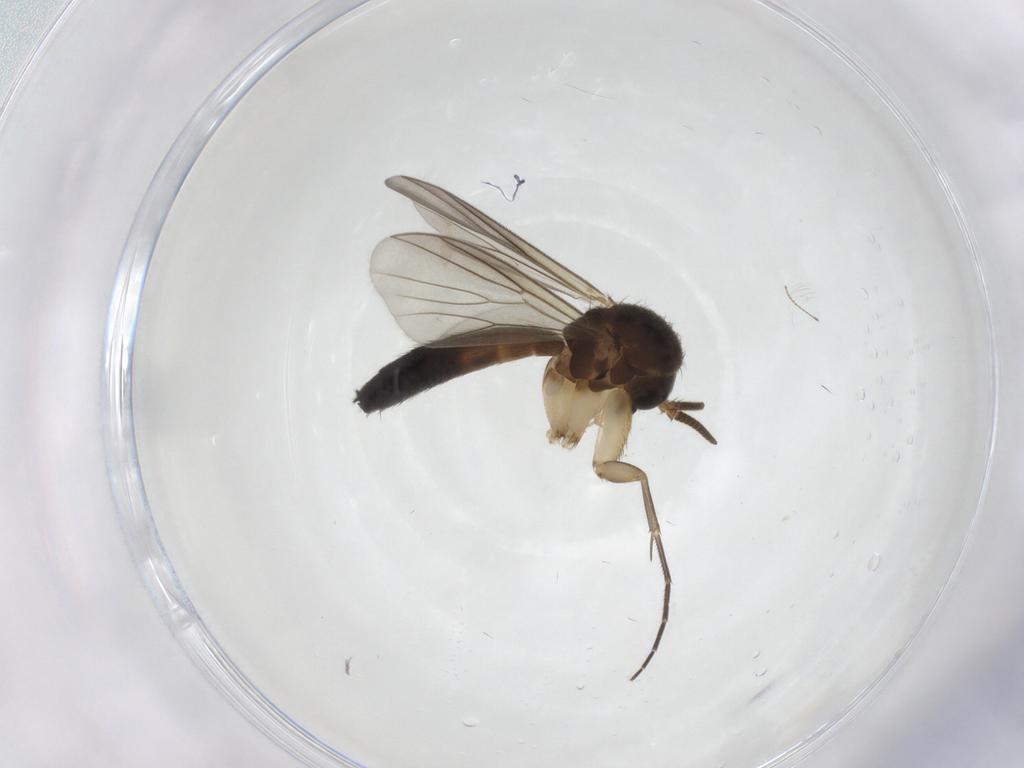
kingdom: Animalia
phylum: Arthropoda
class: Insecta
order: Diptera
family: Mycetophilidae
